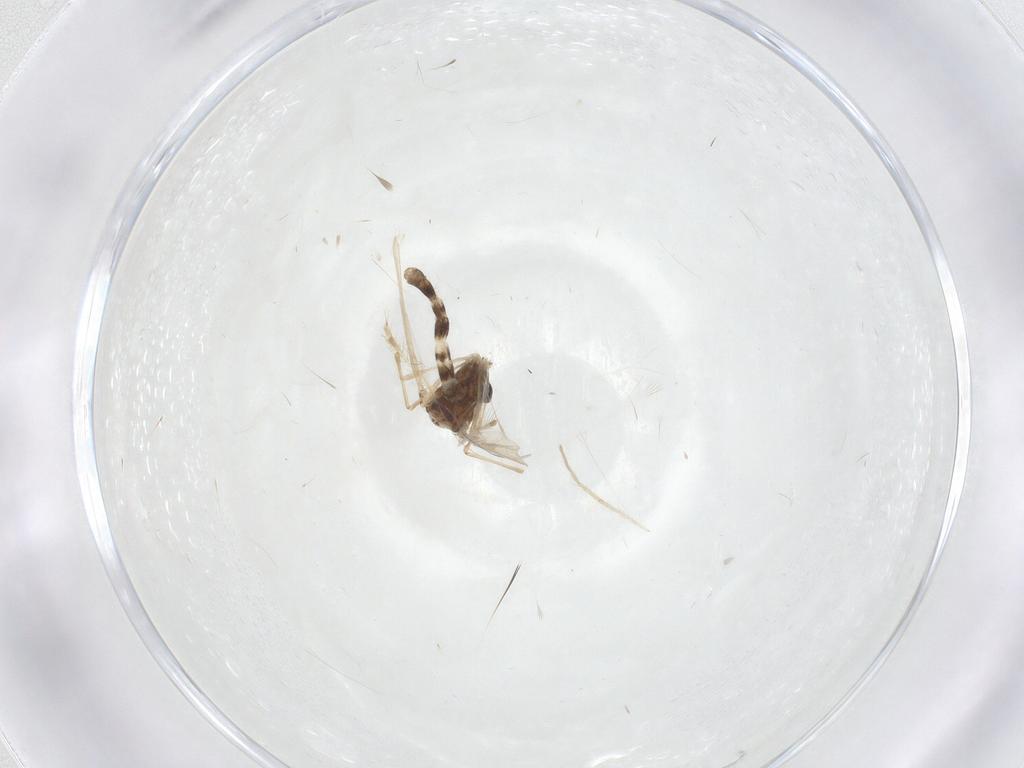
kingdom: Animalia
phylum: Arthropoda
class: Insecta
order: Diptera
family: Chironomidae
